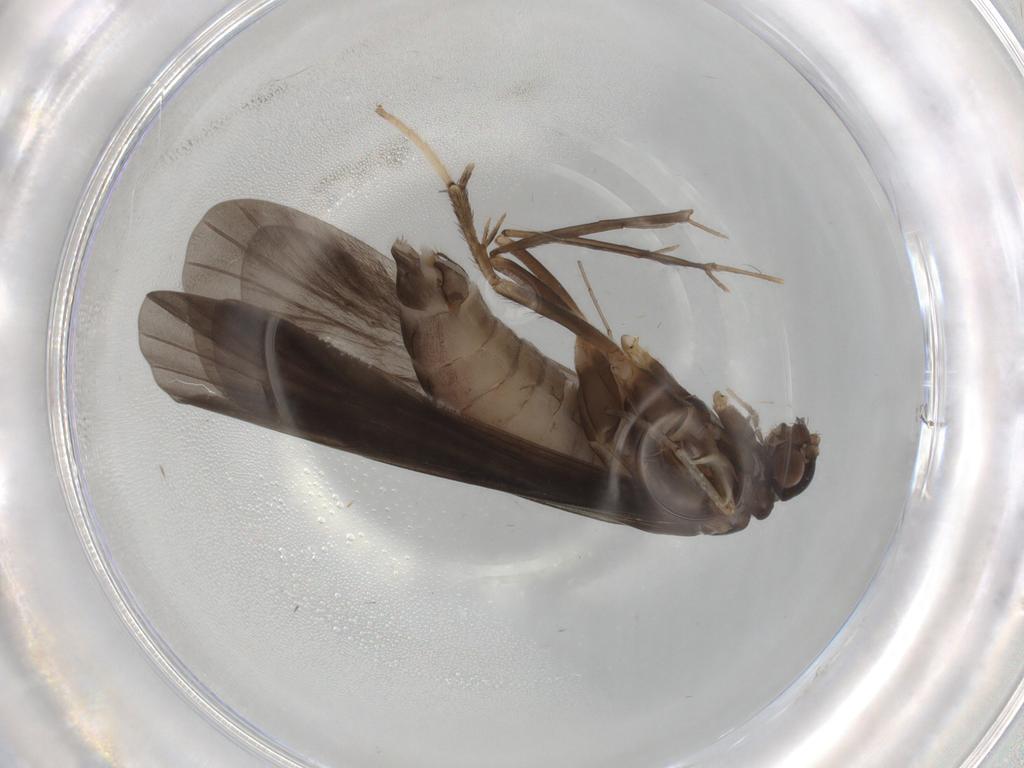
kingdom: Animalia
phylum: Arthropoda
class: Insecta
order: Trichoptera
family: Hydropsychidae
